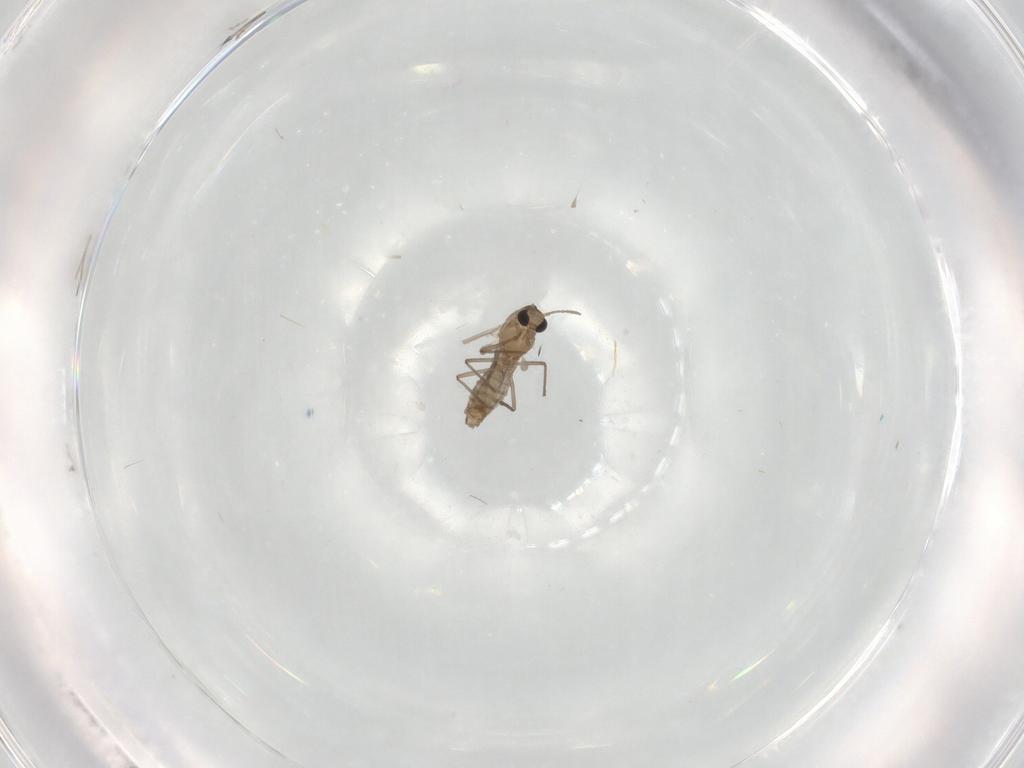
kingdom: Animalia
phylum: Arthropoda
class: Insecta
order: Diptera
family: Chironomidae
